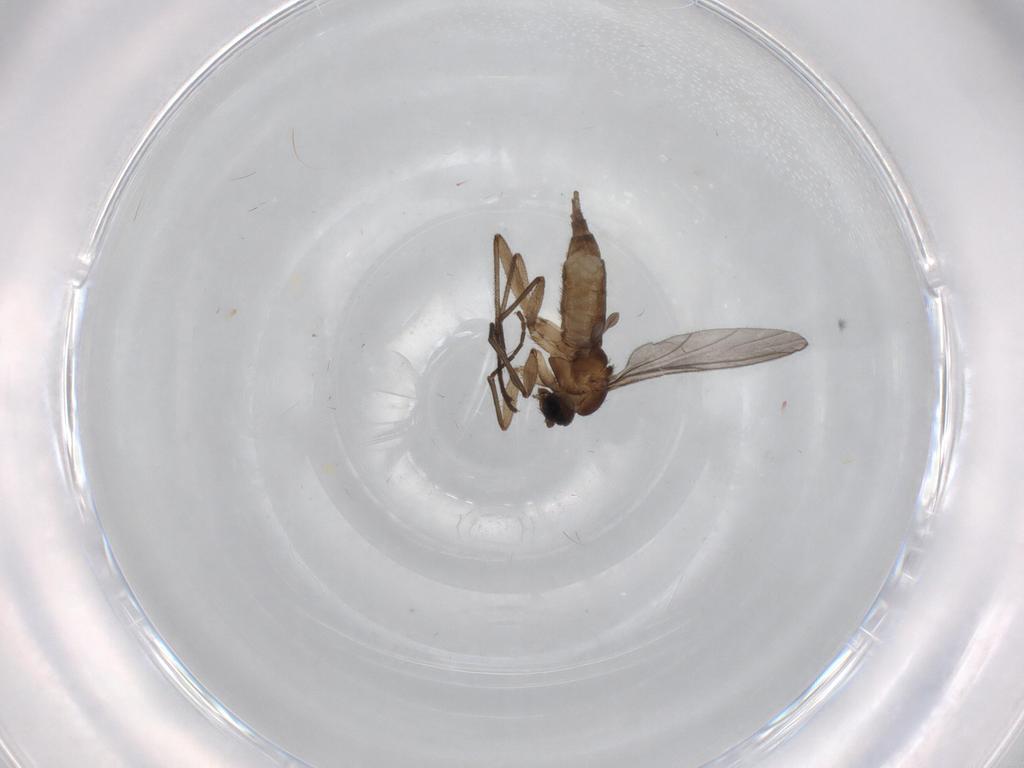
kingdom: Animalia
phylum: Arthropoda
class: Insecta
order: Diptera
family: Sciaridae
